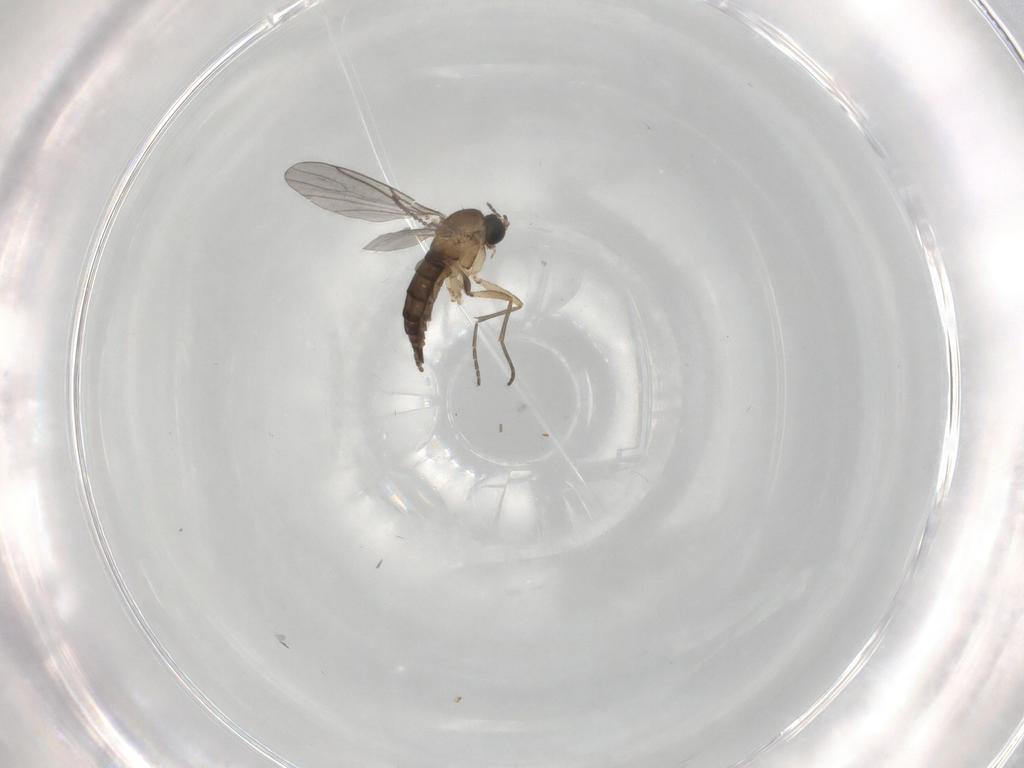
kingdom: Animalia
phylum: Arthropoda
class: Insecta
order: Diptera
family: Sciaridae
